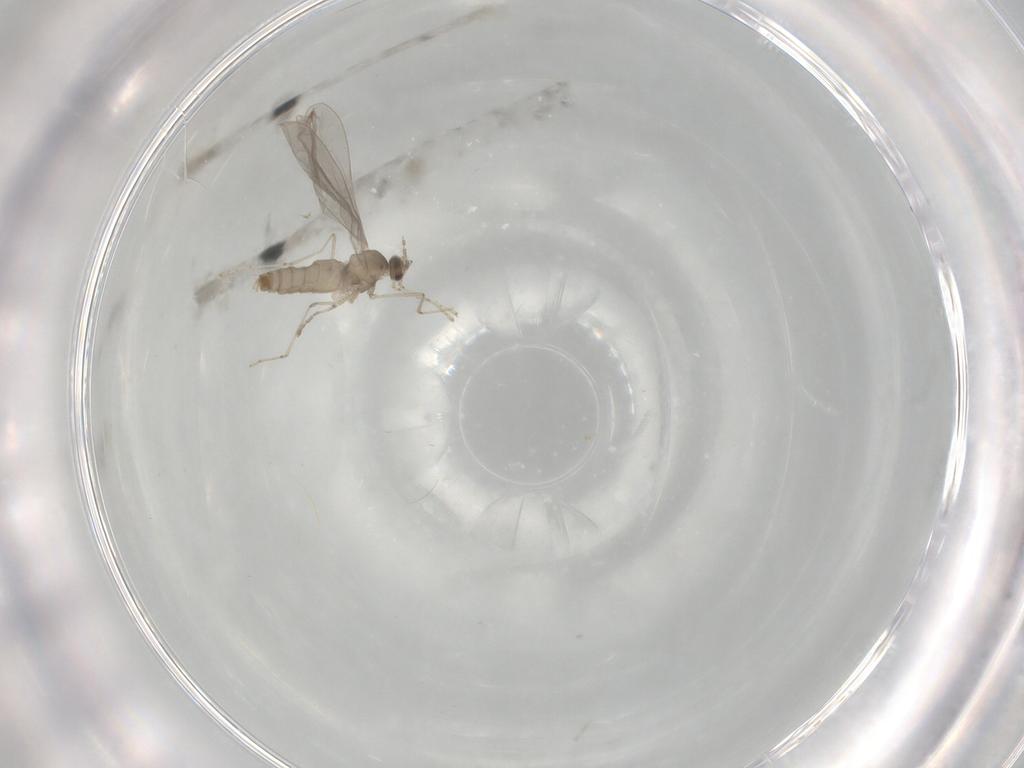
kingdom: Animalia
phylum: Arthropoda
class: Insecta
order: Diptera
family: Cecidomyiidae
